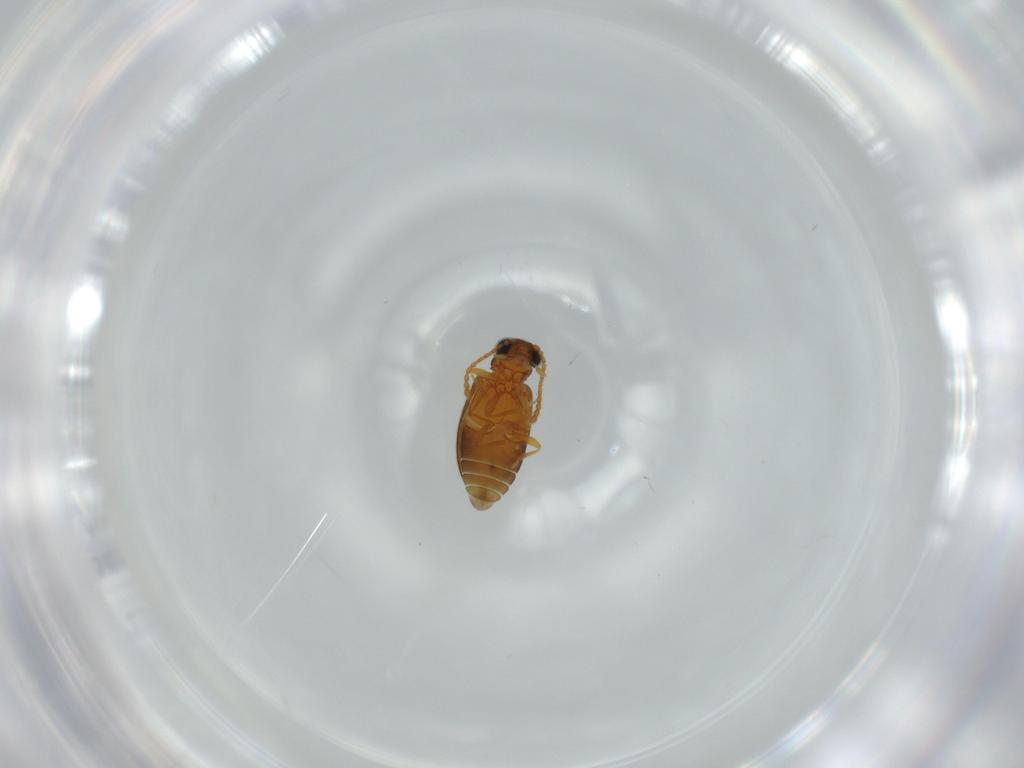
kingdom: Animalia
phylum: Arthropoda
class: Insecta
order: Coleoptera
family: Aderidae
